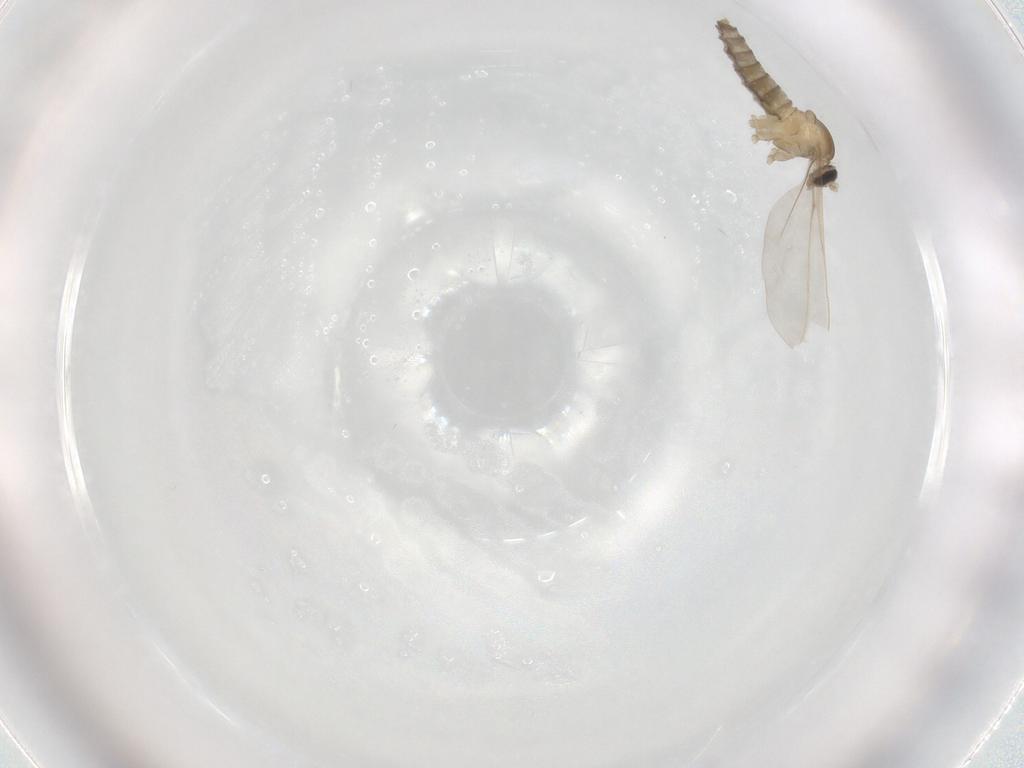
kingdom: Animalia
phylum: Arthropoda
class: Insecta
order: Diptera
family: Cecidomyiidae
